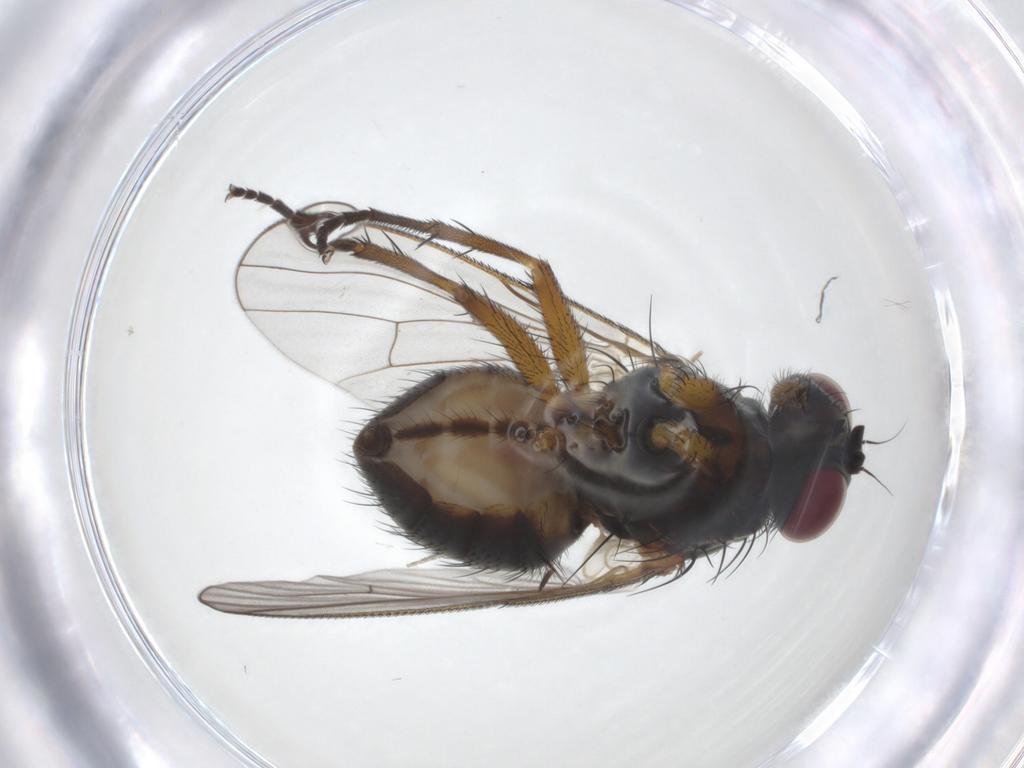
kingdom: Animalia
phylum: Arthropoda
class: Insecta
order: Diptera
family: Muscidae
